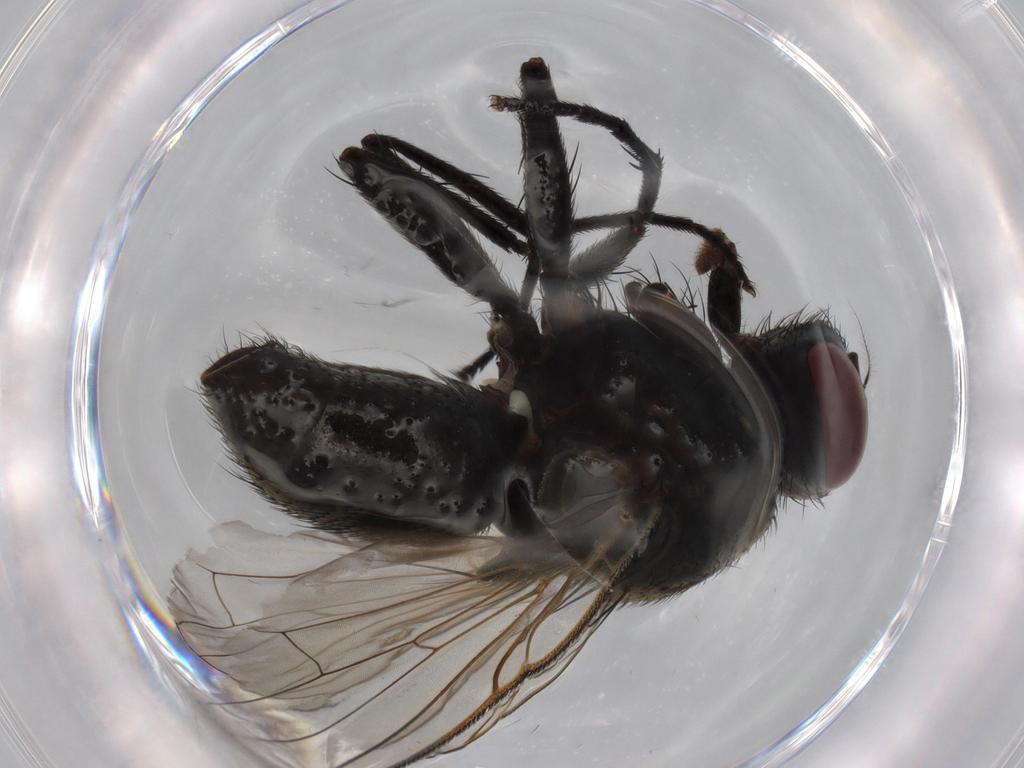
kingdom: Animalia
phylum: Arthropoda
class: Insecta
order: Diptera
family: Muscidae
